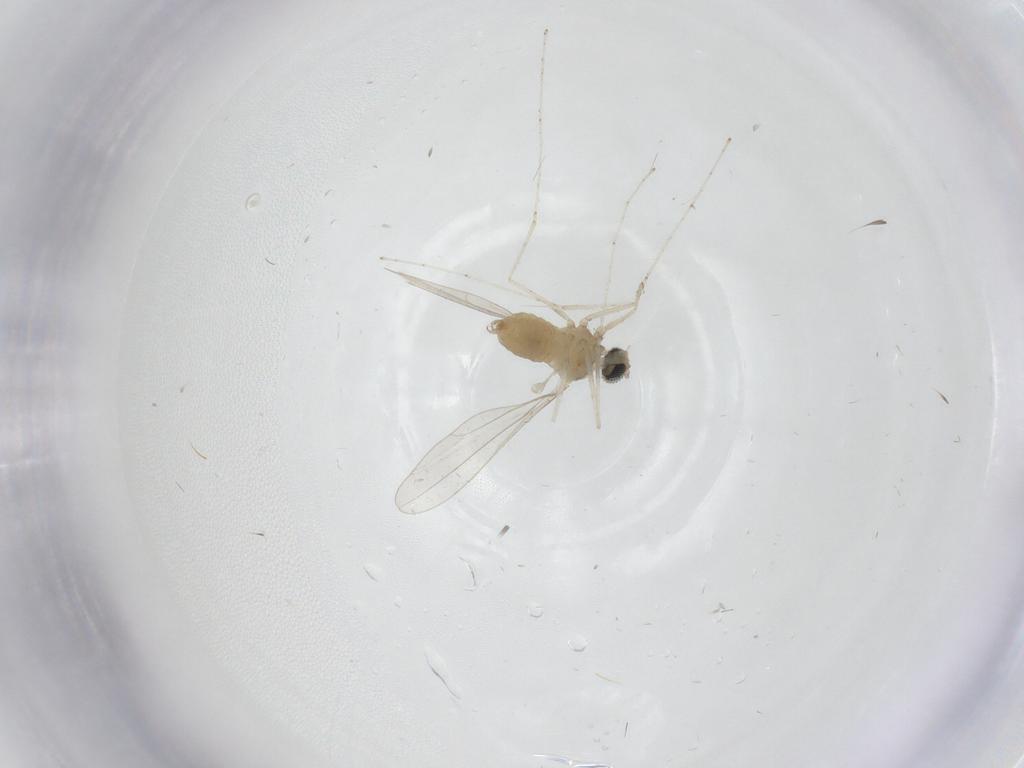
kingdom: Animalia
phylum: Arthropoda
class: Insecta
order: Diptera
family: Cecidomyiidae
